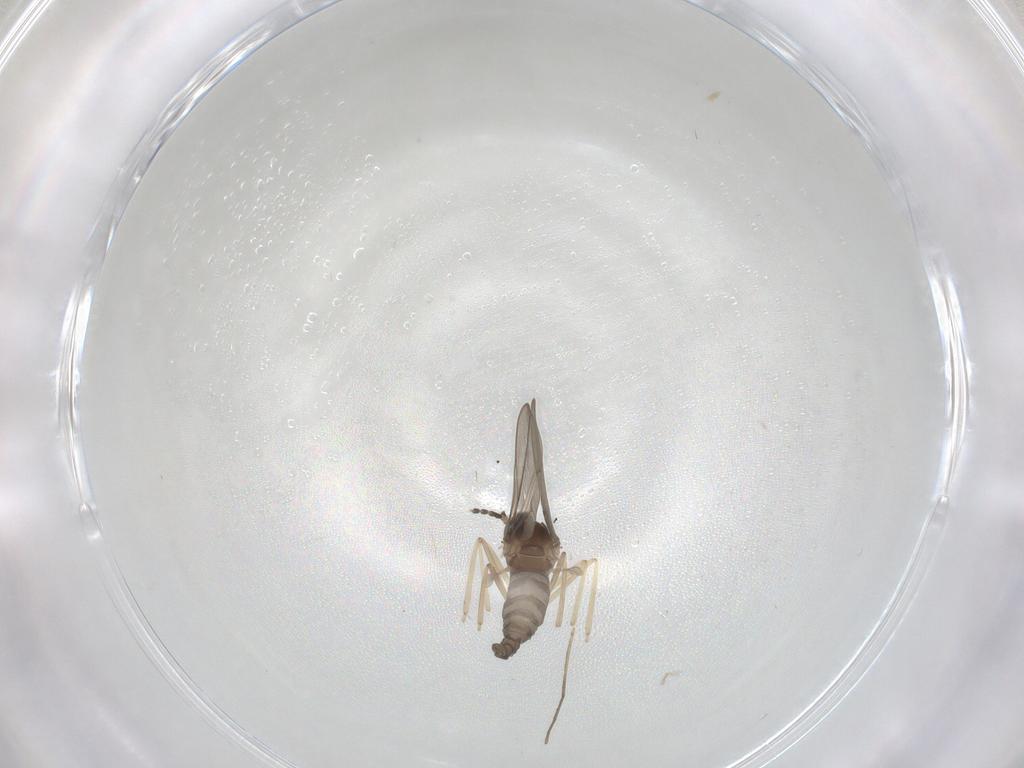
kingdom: Animalia
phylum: Arthropoda
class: Insecta
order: Diptera
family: Cecidomyiidae
